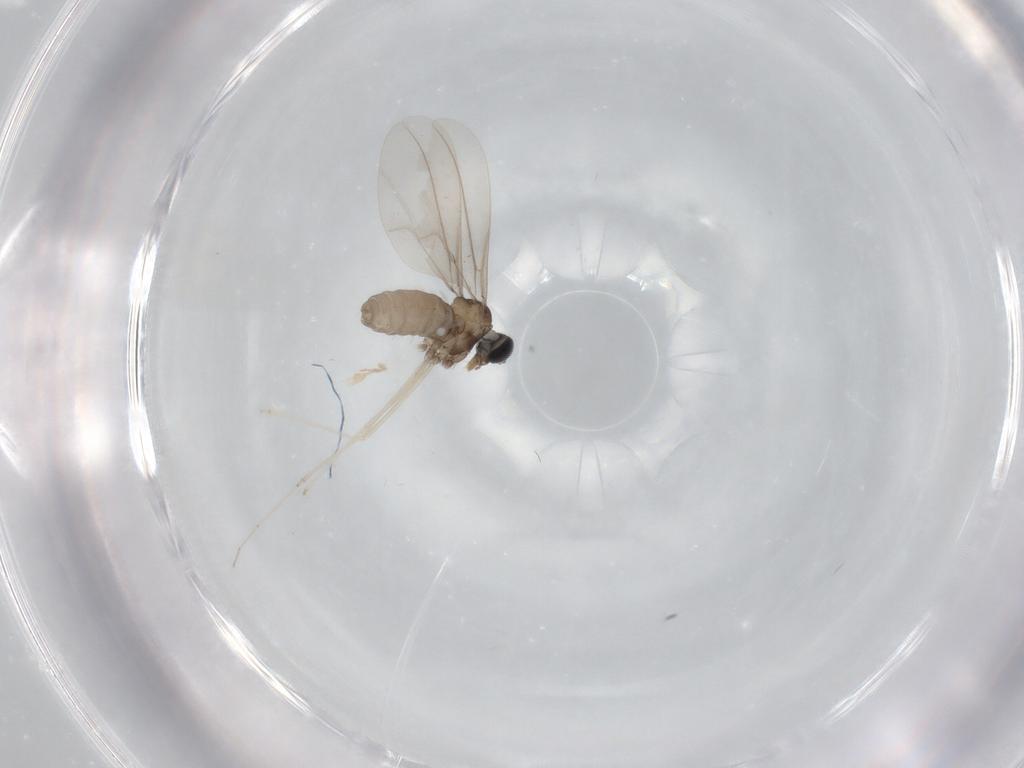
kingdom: Animalia
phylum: Arthropoda
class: Insecta
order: Diptera
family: Cecidomyiidae
